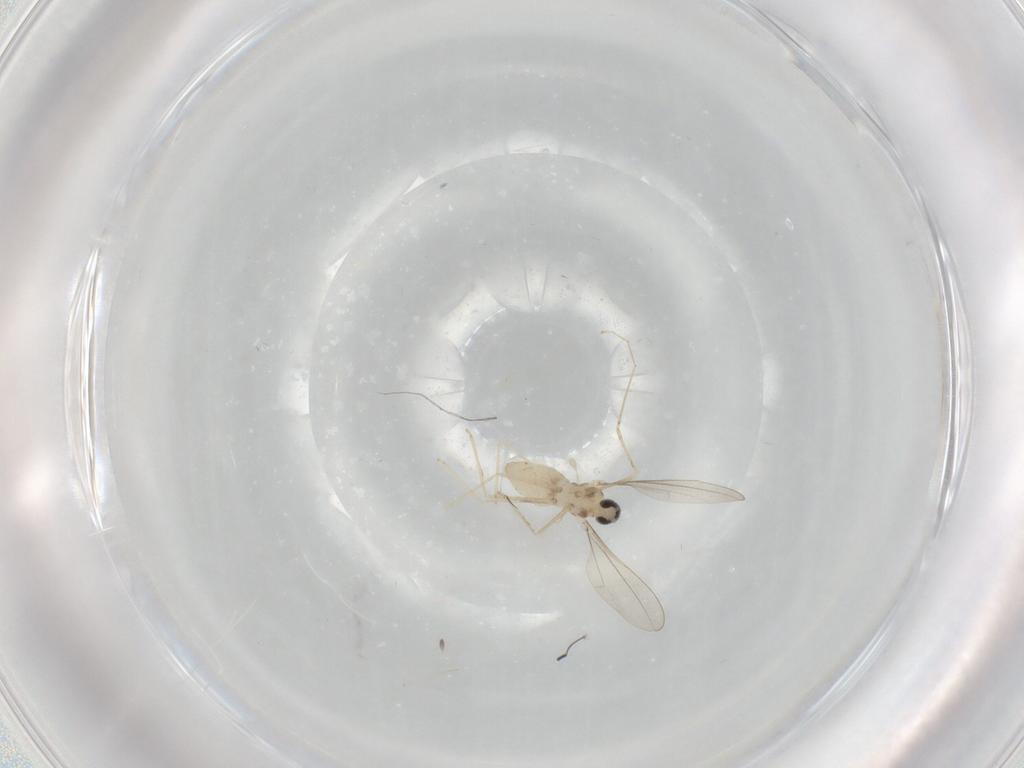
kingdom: Animalia
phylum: Arthropoda
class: Insecta
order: Diptera
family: Cecidomyiidae
